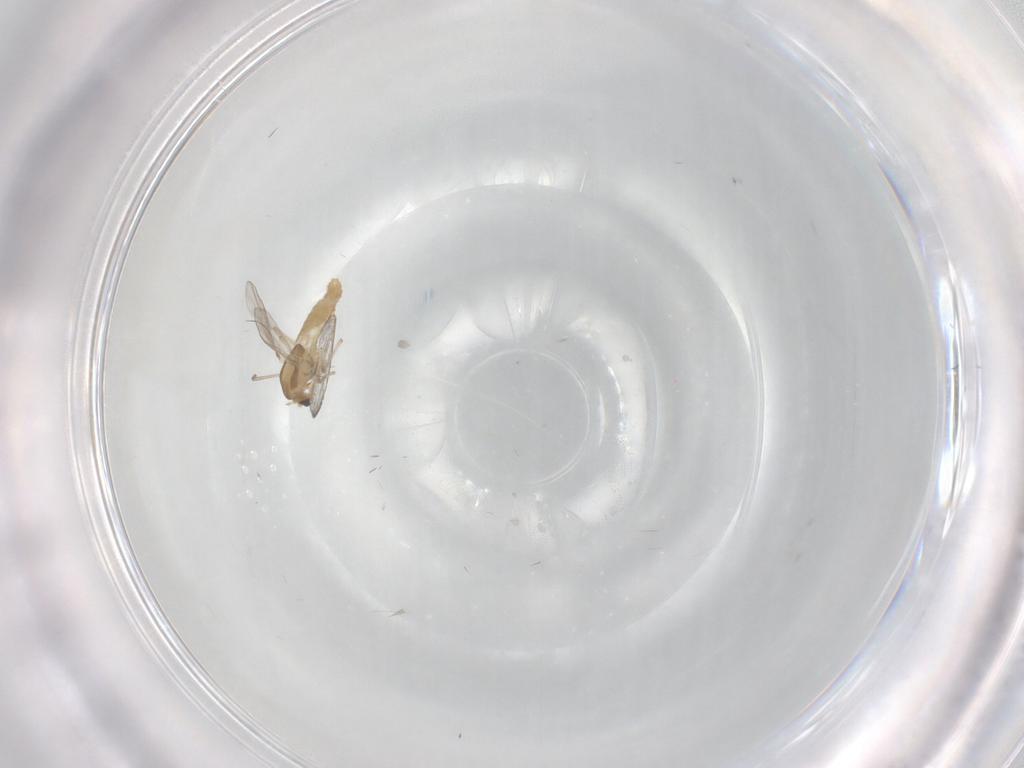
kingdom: Animalia
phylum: Arthropoda
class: Insecta
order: Diptera
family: Chironomidae
